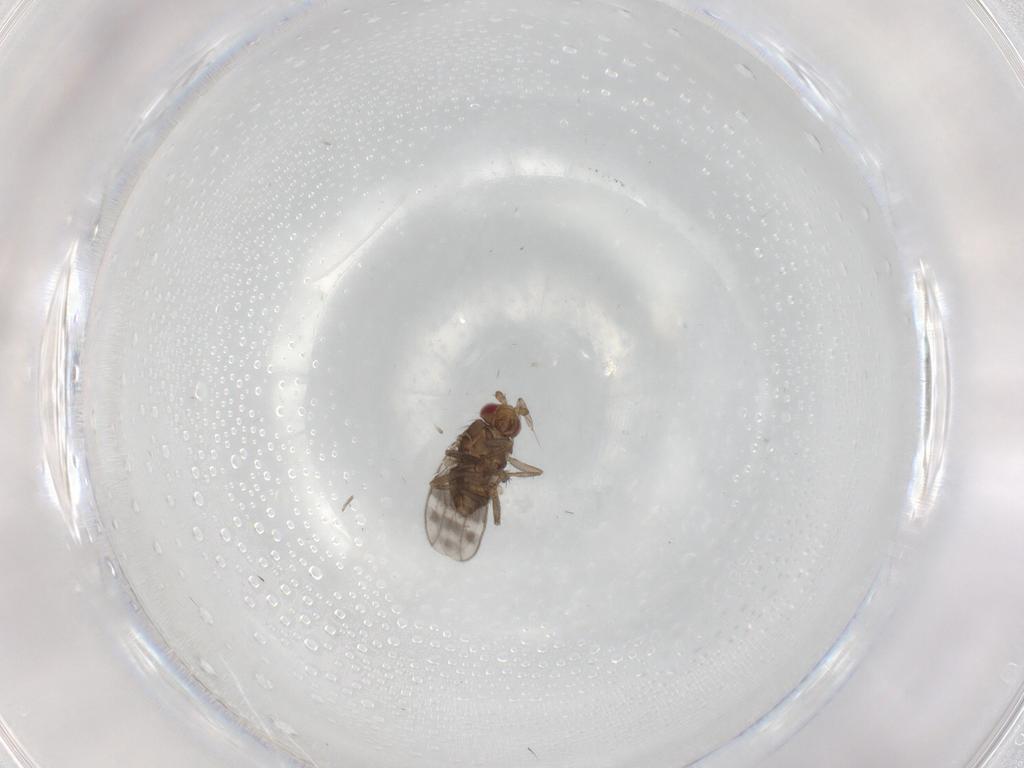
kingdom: Animalia
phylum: Arthropoda
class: Insecta
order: Diptera
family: Sphaeroceridae
